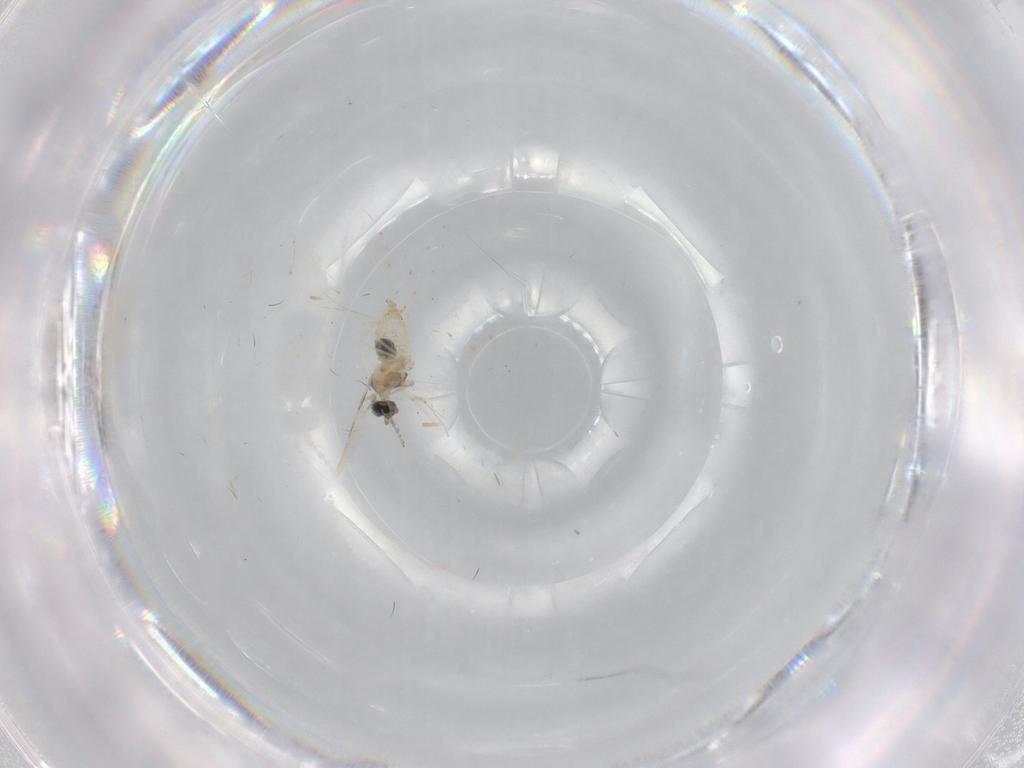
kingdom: Animalia
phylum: Arthropoda
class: Insecta
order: Diptera
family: Cecidomyiidae
